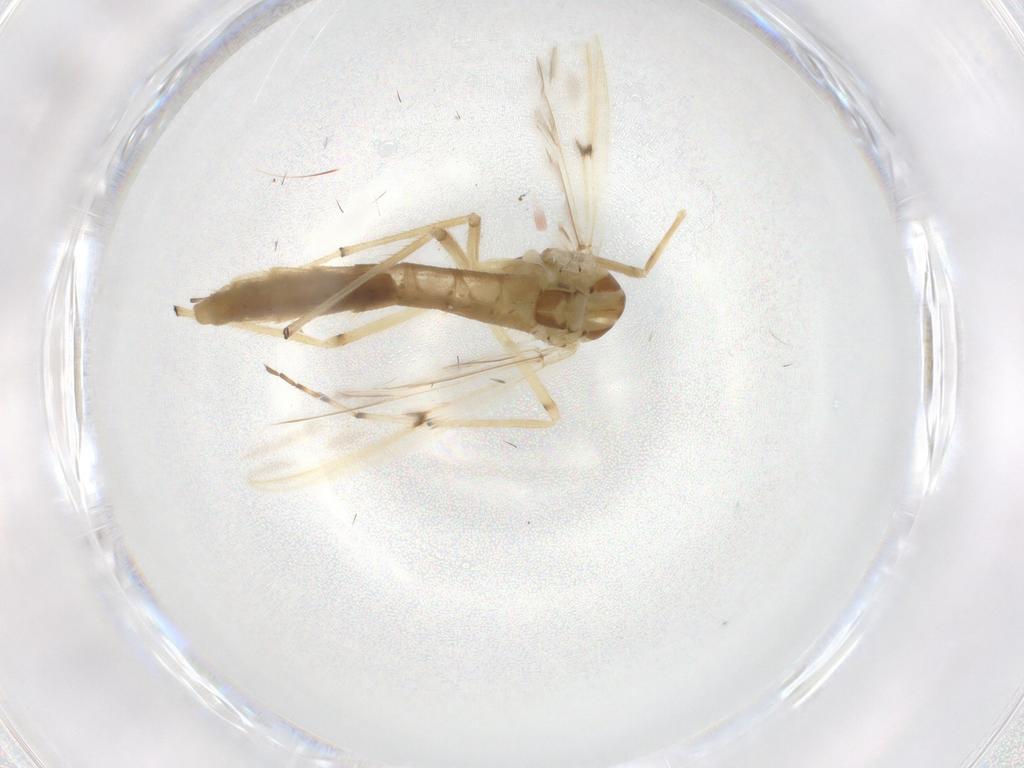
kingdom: Animalia
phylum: Arthropoda
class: Insecta
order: Diptera
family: Chironomidae
